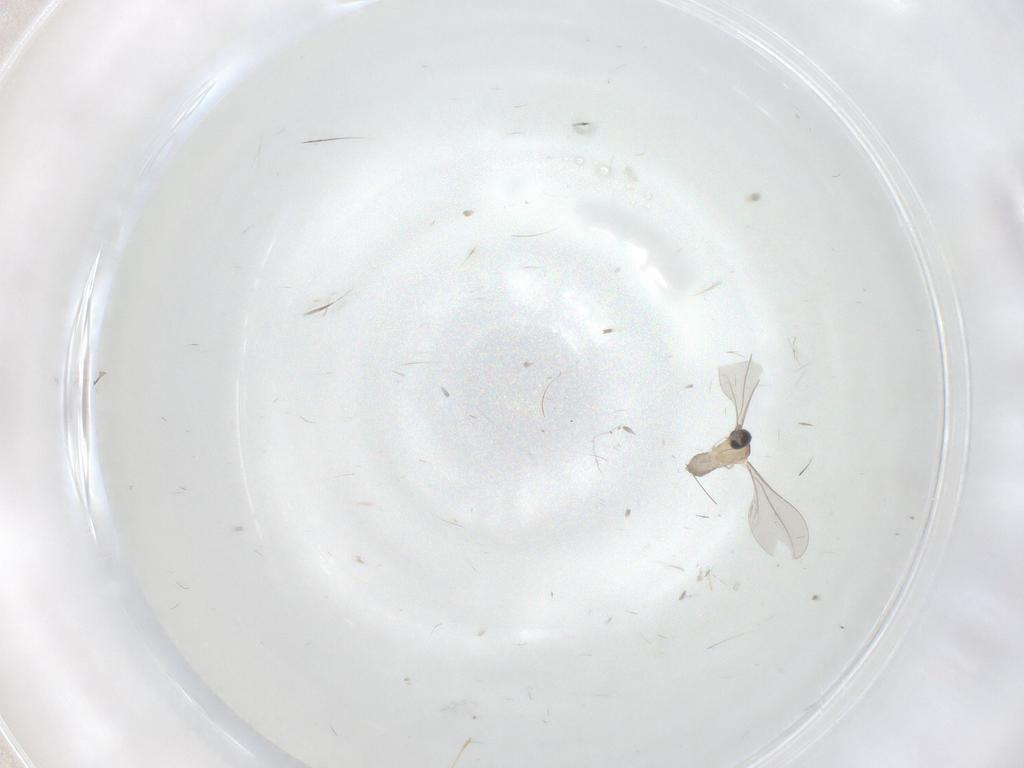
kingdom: Animalia
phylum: Arthropoda
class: Insecta
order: Diptera
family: Cecidomyiidae
